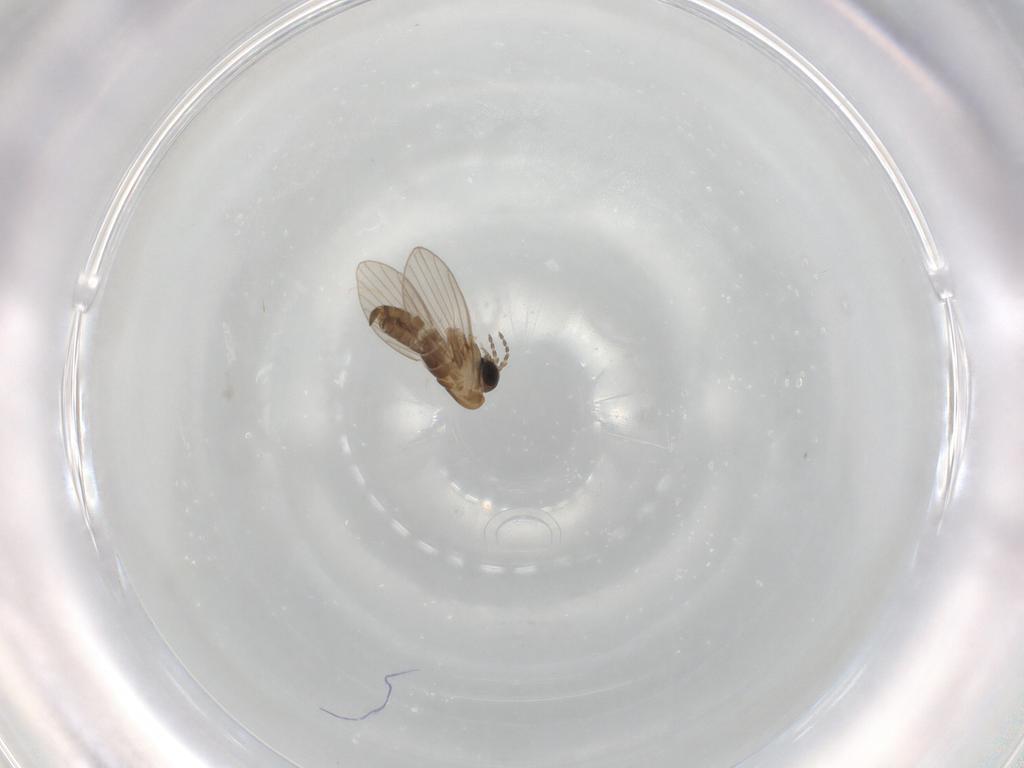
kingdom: Animalia
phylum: Arthropoda
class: Insecta
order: Diptera
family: Psychodidae
